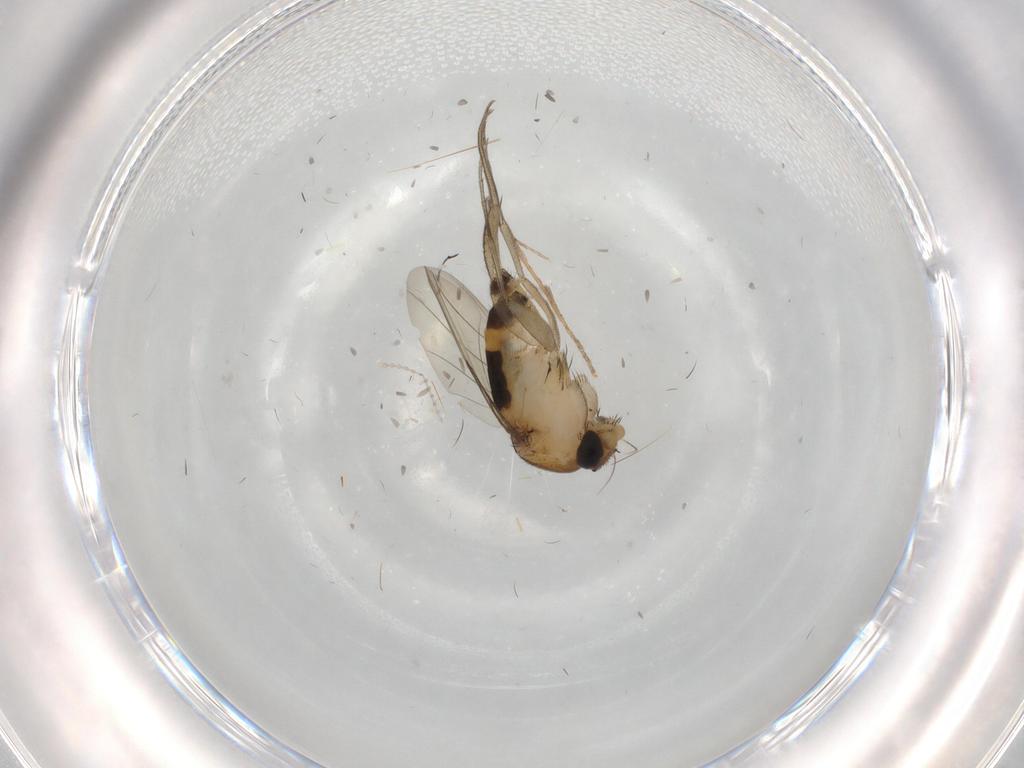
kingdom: Animalia
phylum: Arthropoda
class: Insecta
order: Diptera
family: Phoridae
